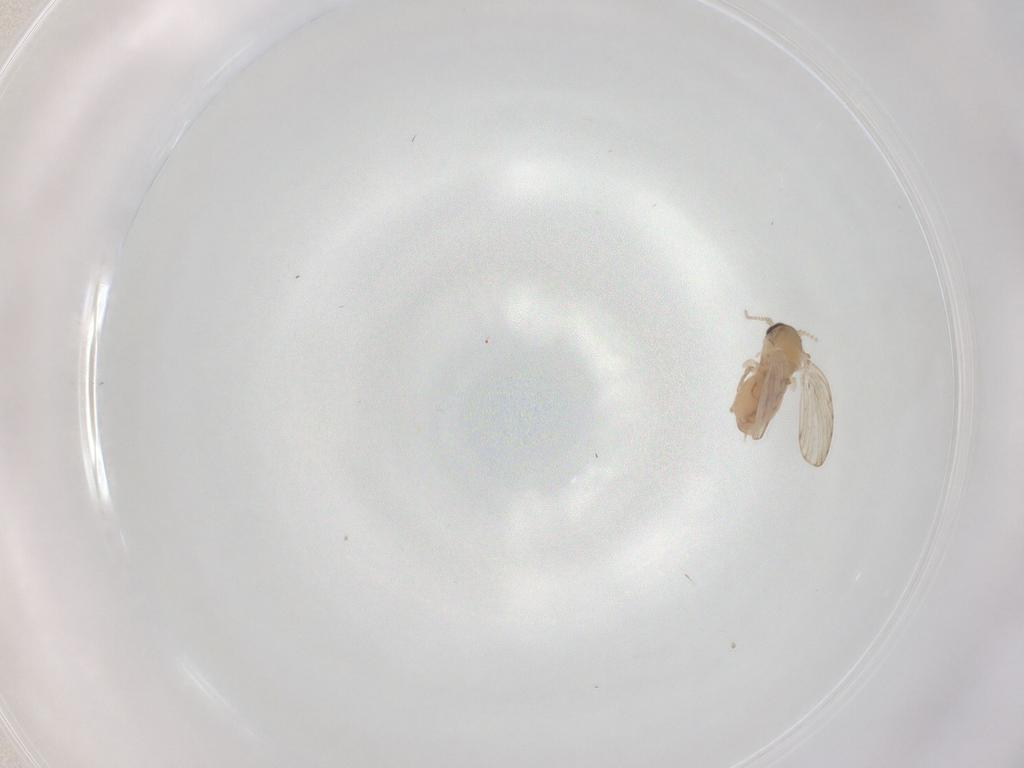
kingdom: Animalia
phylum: Arthropoda
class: Insecta
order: Diptera
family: Psychodidae
